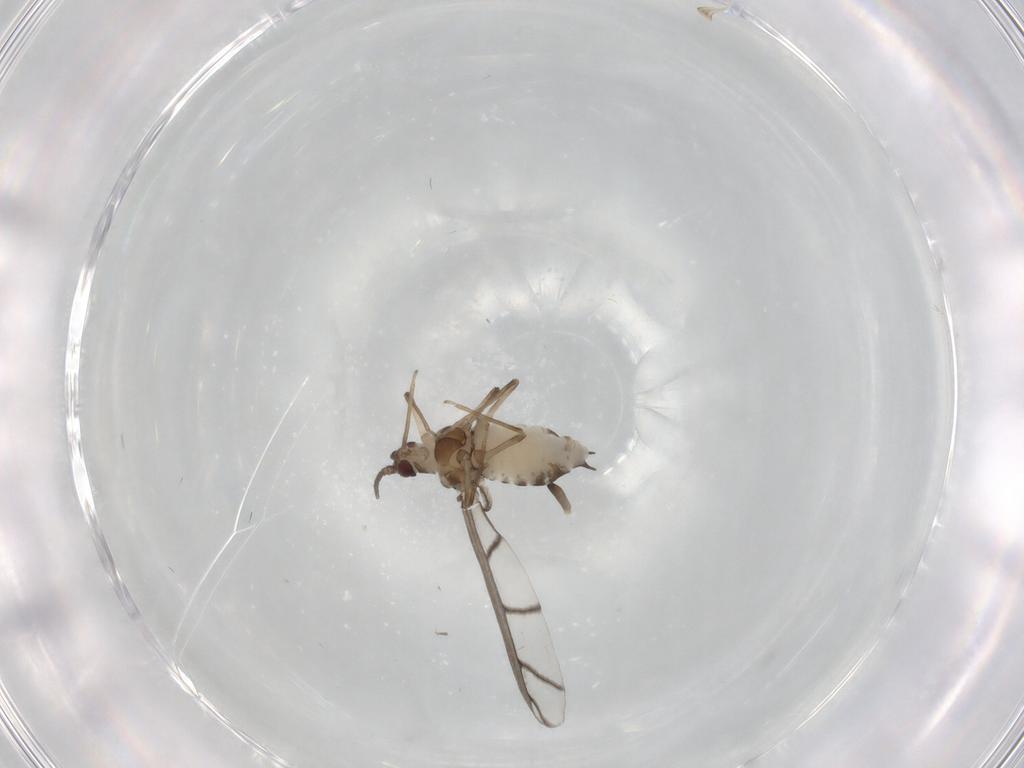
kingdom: Animalia
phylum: Arthropoda
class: Insecta
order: Hemiptera
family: Aphididae
